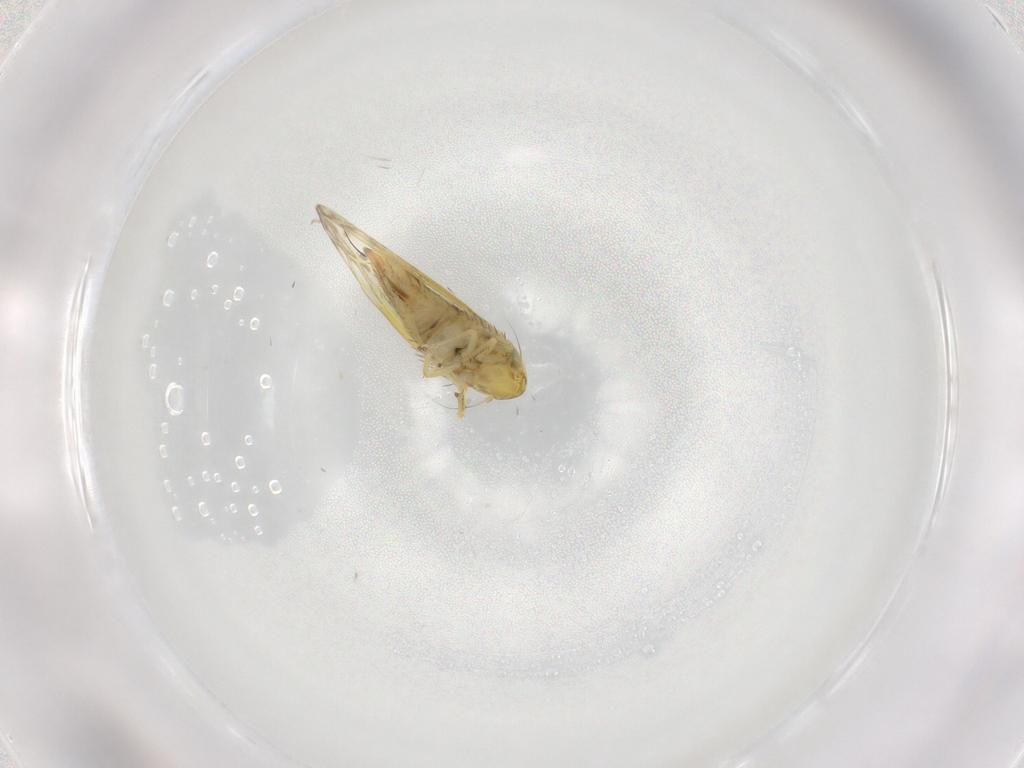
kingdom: Animalia
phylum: Arthropoda
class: Insecta
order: Hemiptera
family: Cicadellidae
